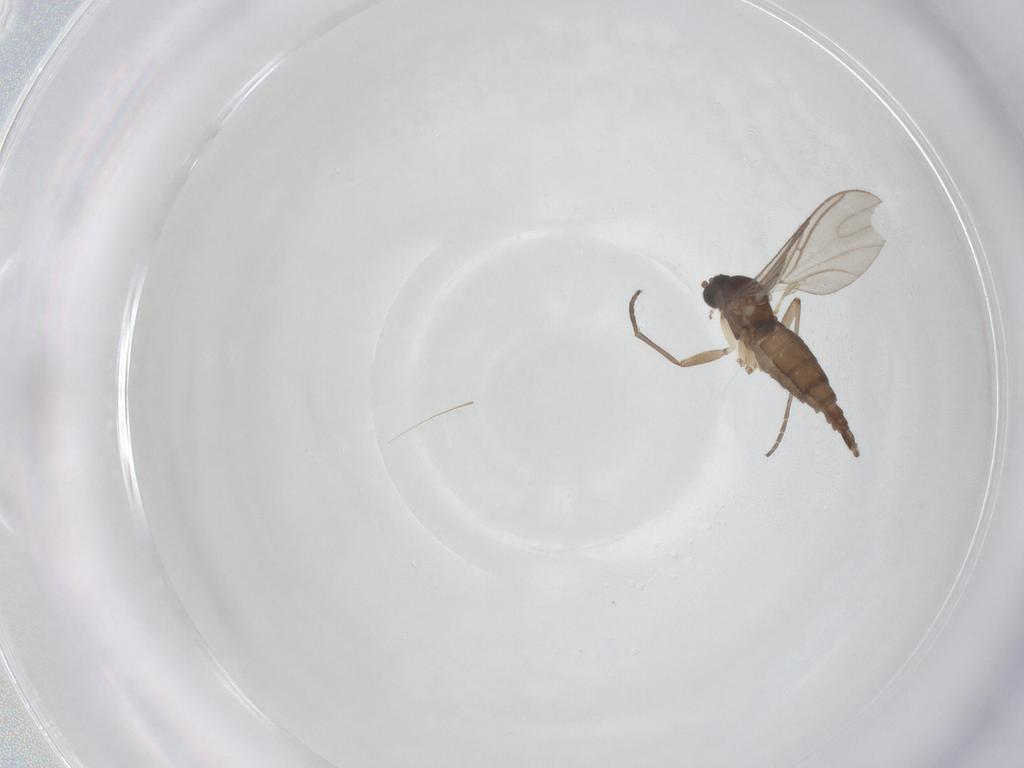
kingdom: Animalia
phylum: Arthropoda
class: Insecta
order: Diptera
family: Sciaridae
